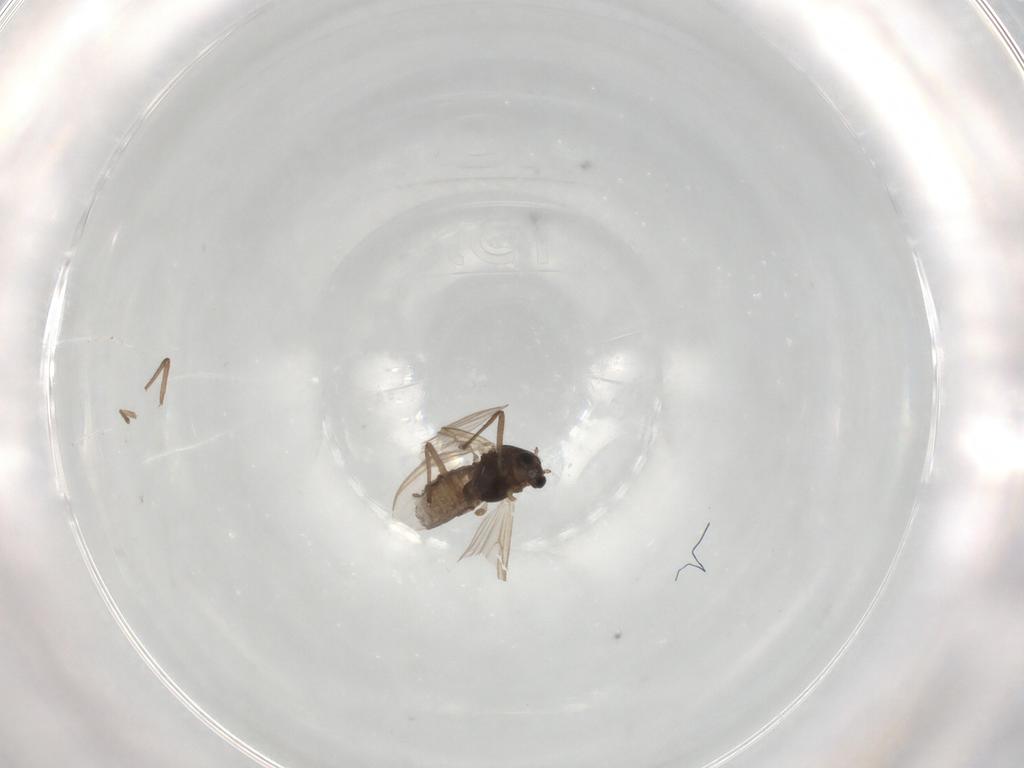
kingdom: Animalia
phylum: Arthropoda
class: Insecta
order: Diptera
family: Chironomidae
